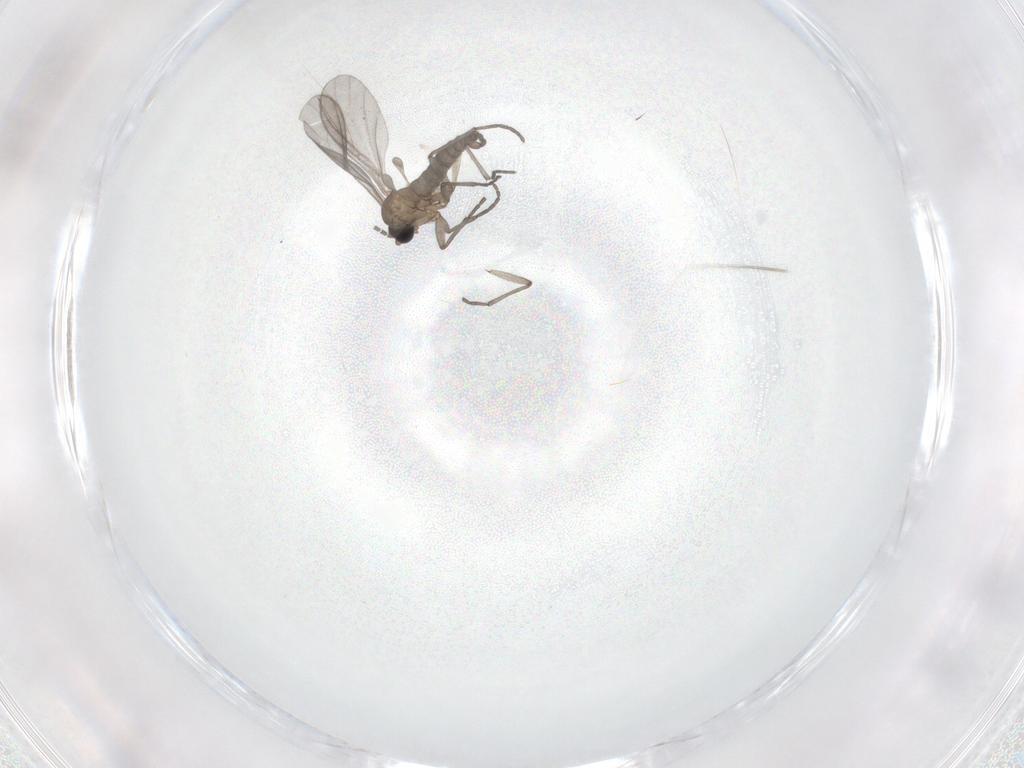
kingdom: Animalia
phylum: Arthropoda
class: Insecta
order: Diptera
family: Sciaridae
